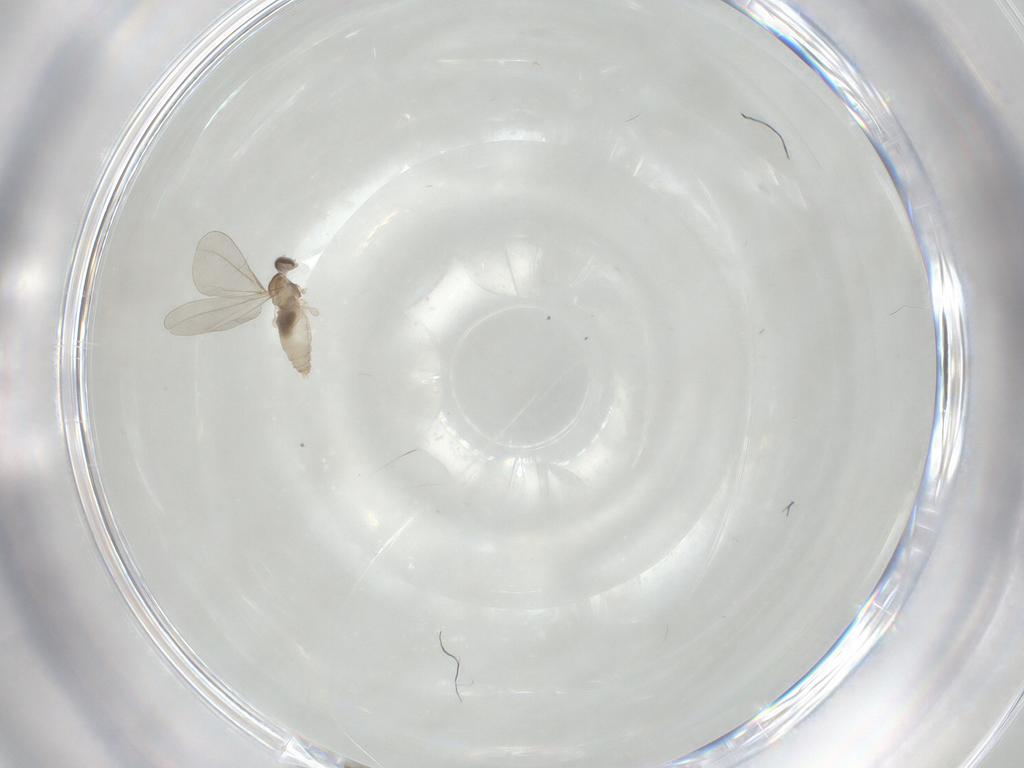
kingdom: Animalia
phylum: Arthropoda
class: Insecta
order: Diptera
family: Cecidomyiidae
